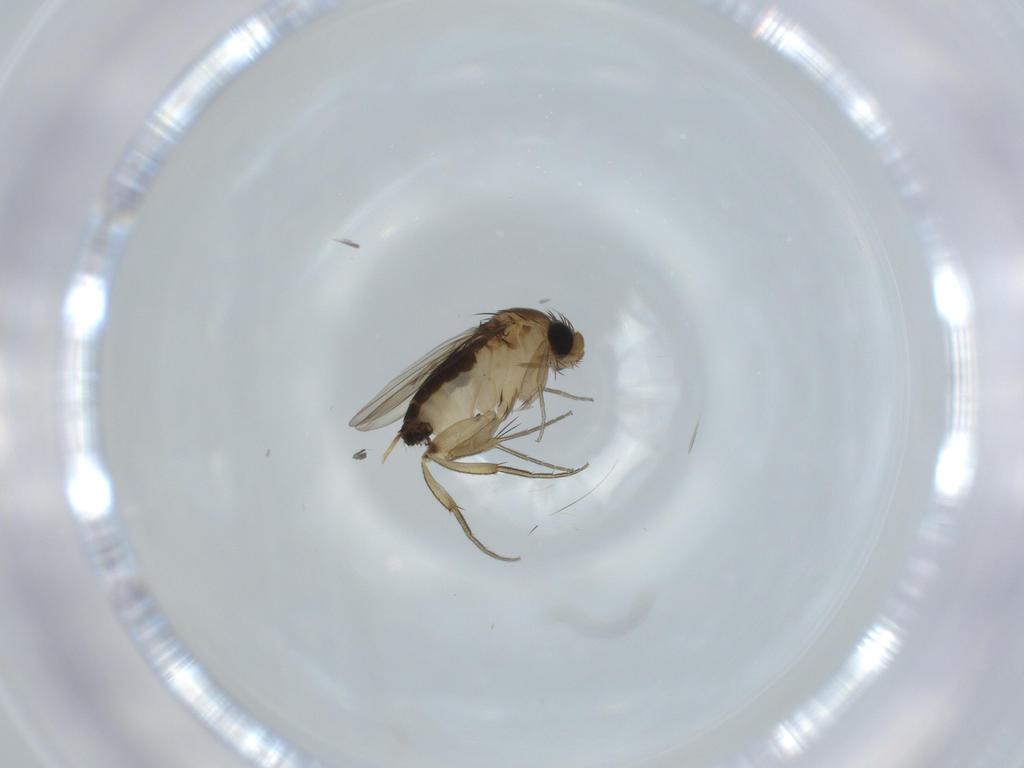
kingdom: Animalia
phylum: Arthropoda
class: Insecta
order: Diptera
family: Phoridae
